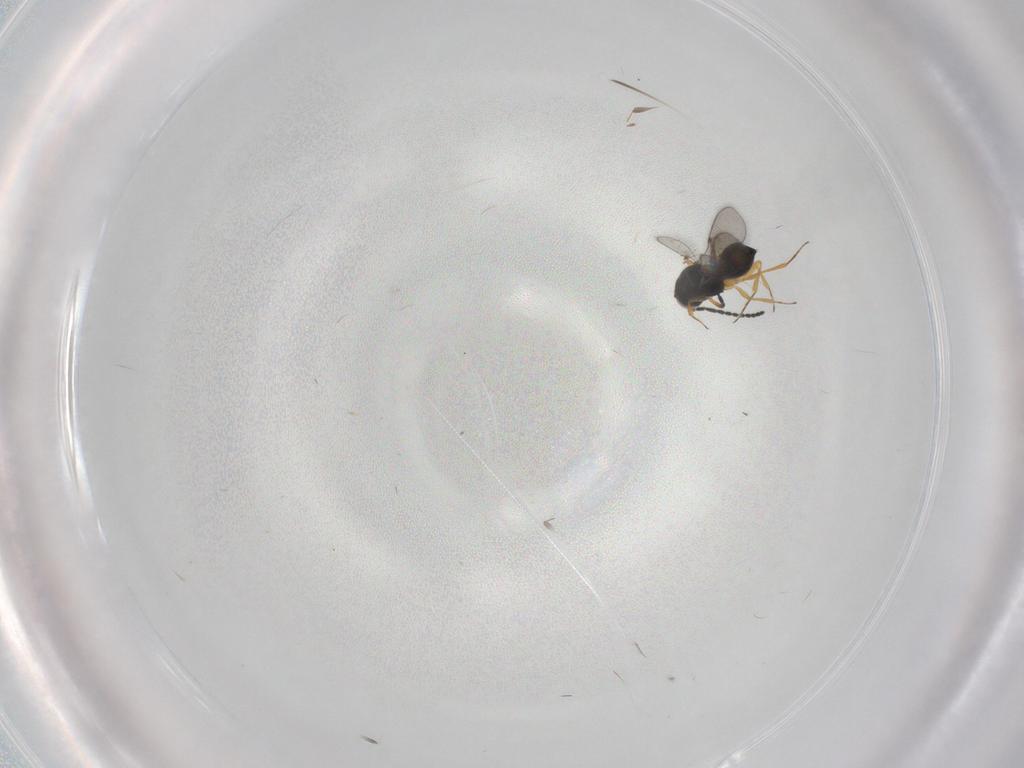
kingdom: Animalia
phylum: Arthropoda
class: Insecta
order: Hymenoptera
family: Scelionidae
